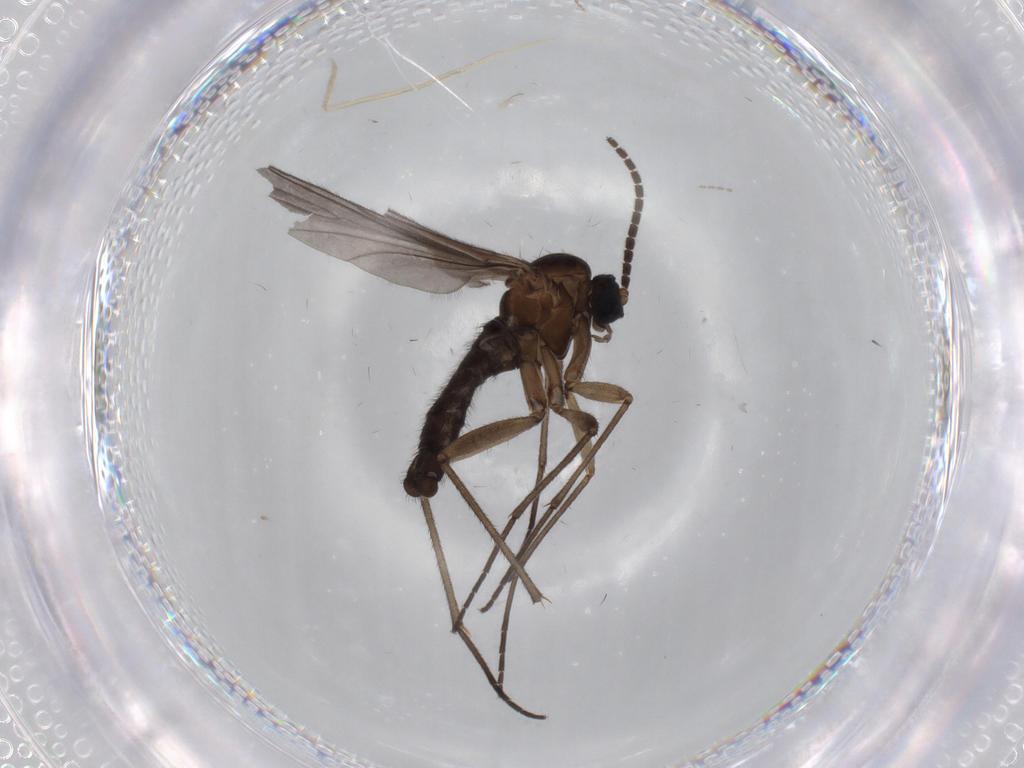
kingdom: Animalia
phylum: Arthropoda
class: Insecta
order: Diptera
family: Sciaridae
